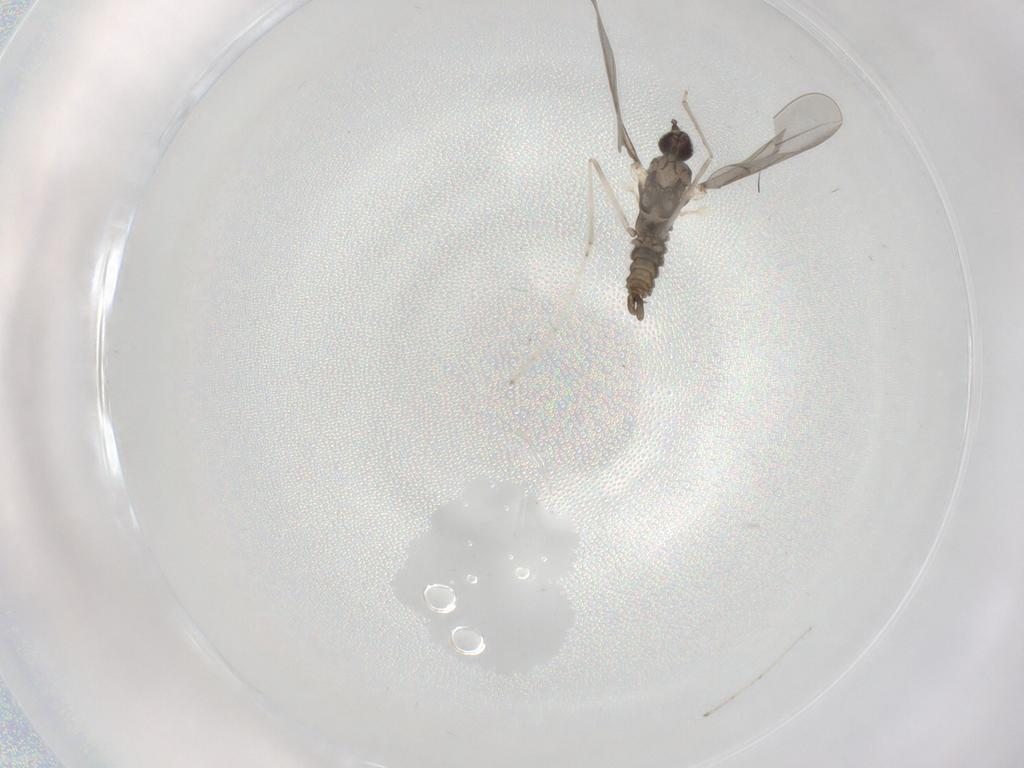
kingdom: Animalia
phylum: Arthropoda
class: Insecta
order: Diptera
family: Cecidomyiidae
